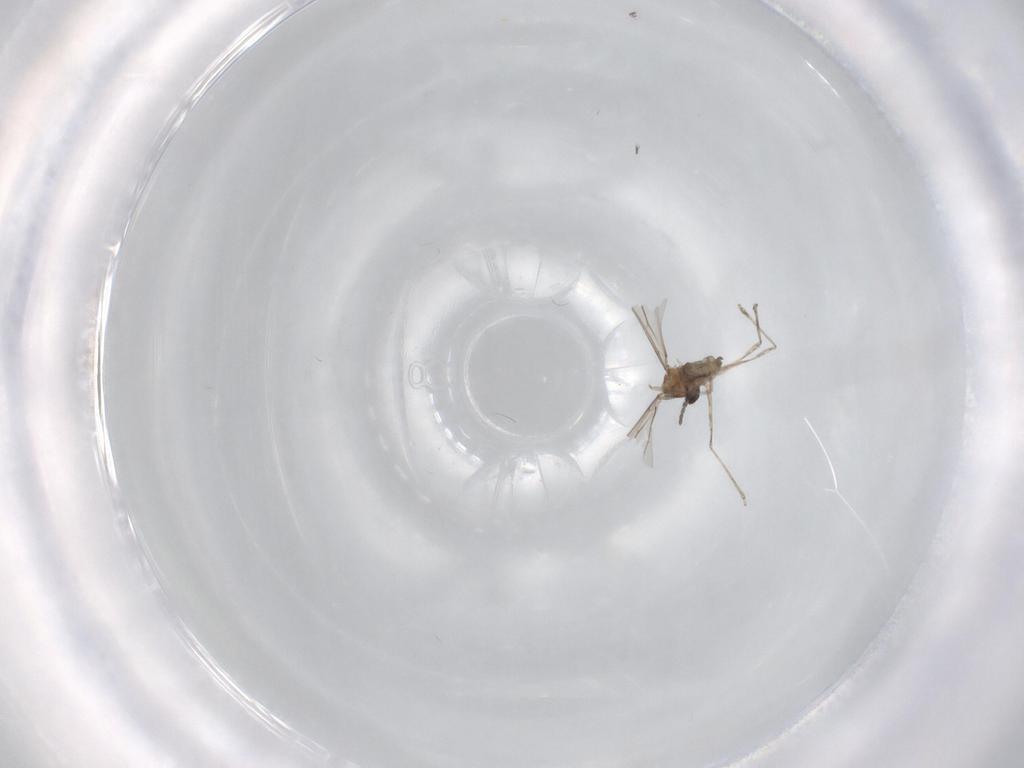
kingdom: Animalia
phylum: Arthropoda
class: Insecta
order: Diptera
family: Cecidomyiidae
